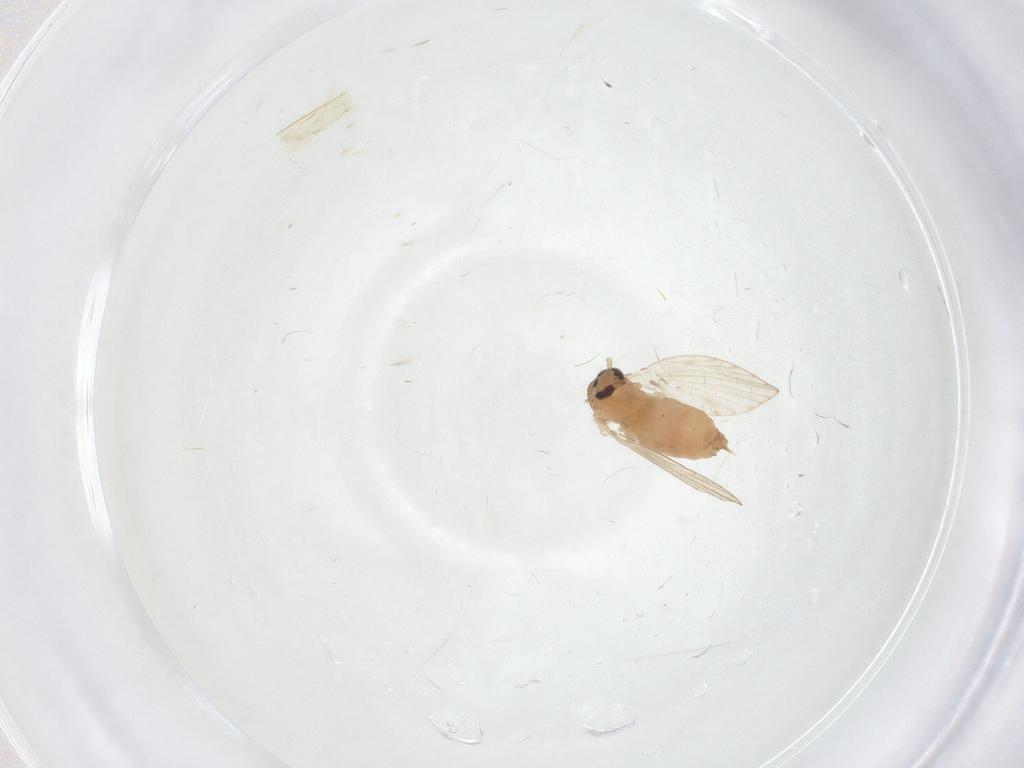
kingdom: Animalia
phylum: Arthropoda
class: Insecta
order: Diptera
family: Psychodidae
